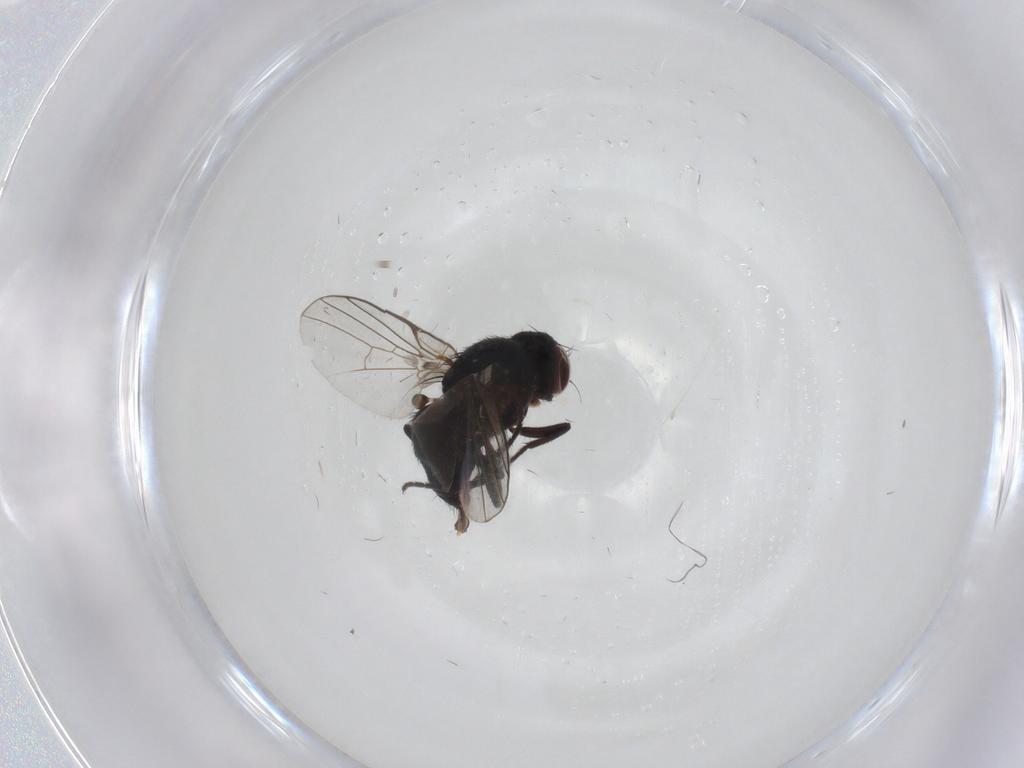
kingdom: Animalia
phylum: Arthropoda
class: Insecta
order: Diptera
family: Agromyzidae
